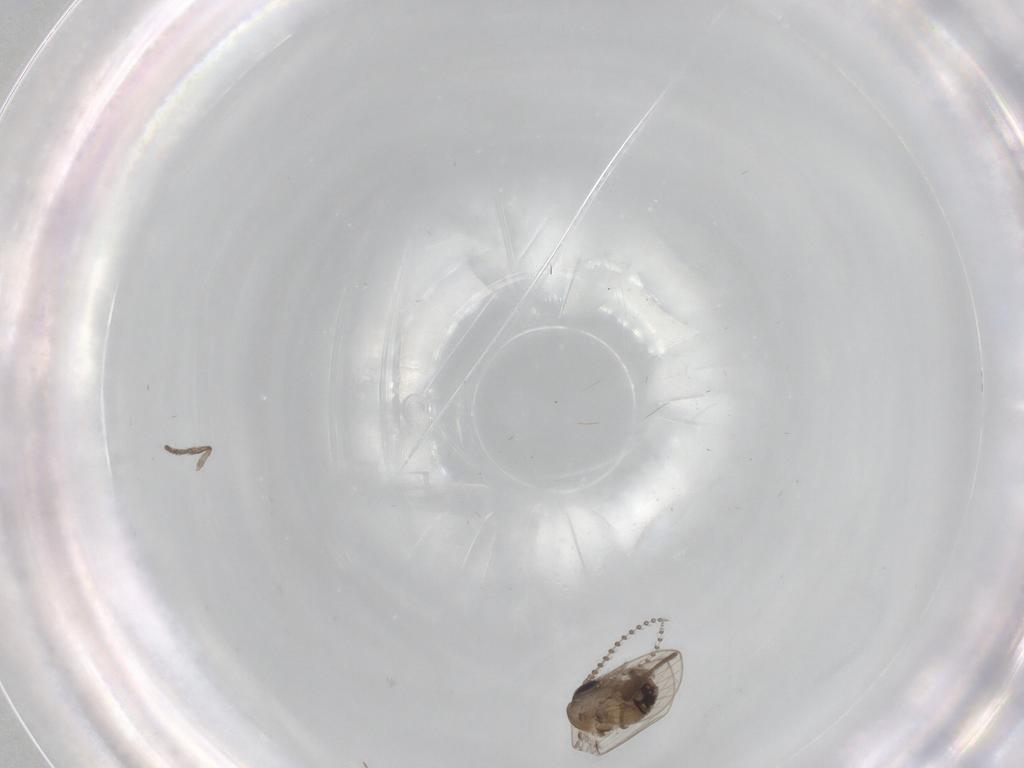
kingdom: Animalia
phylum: Arthropoda
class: Insecta
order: Diptera
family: Psychodidae
